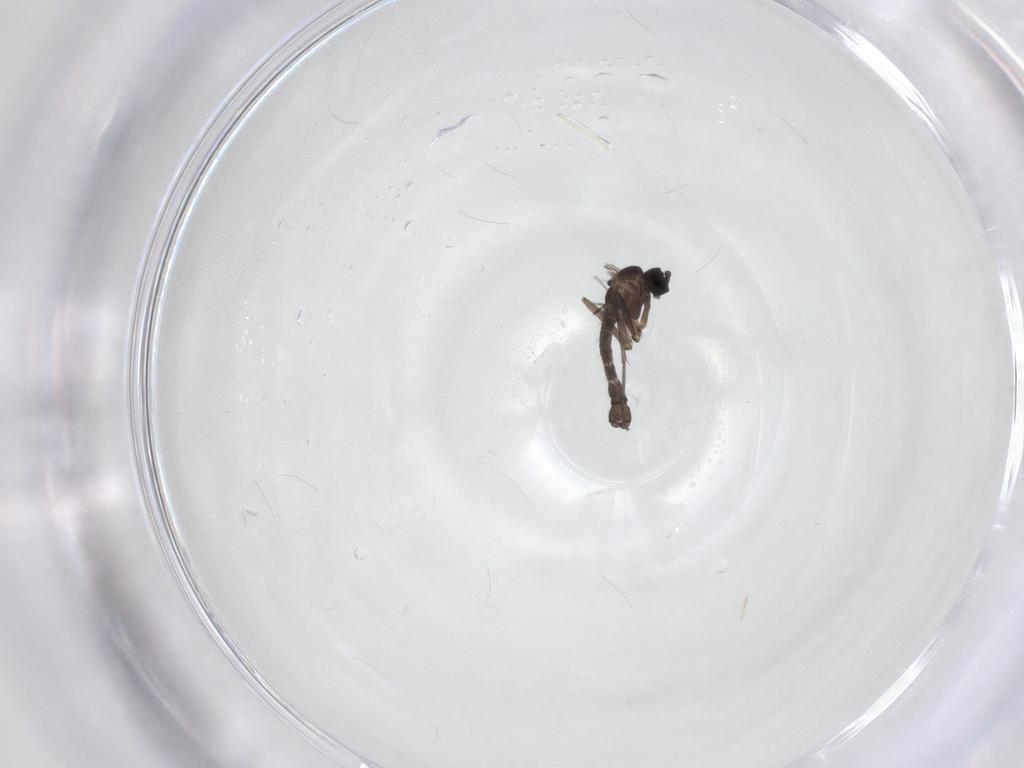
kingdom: Animalia
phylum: Arthropoda
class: Insecta
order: Diptera
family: Sciaridae
